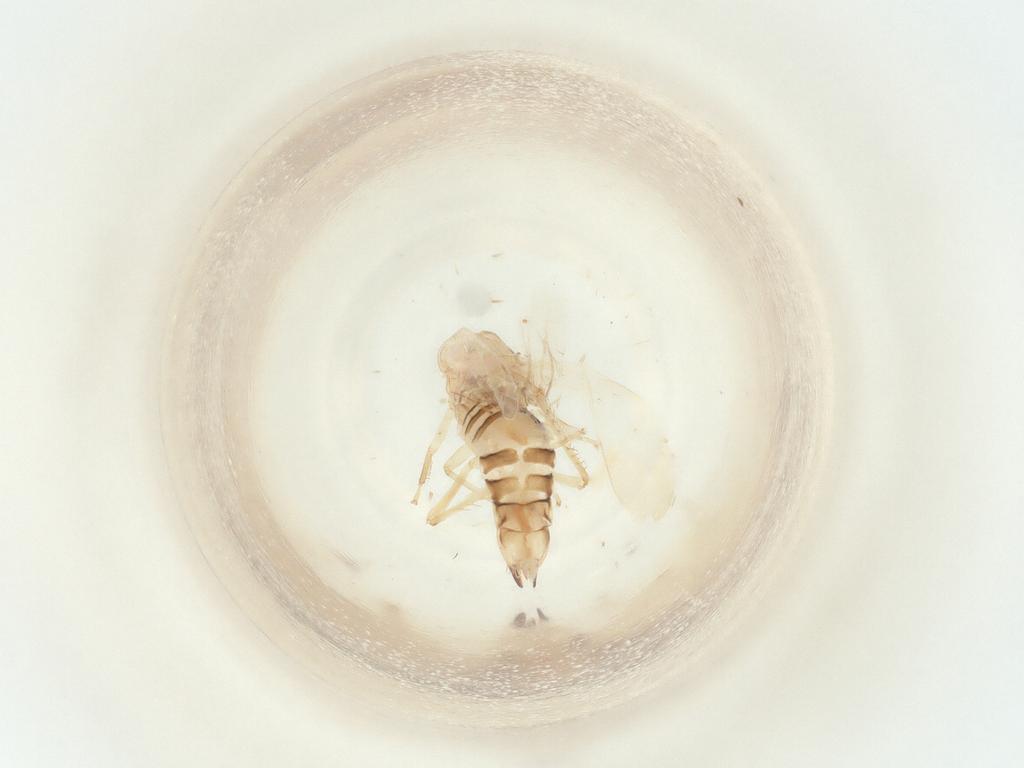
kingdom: Animalia
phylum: Arthropoda
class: Insecta
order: Hemiptera
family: Cicadellidae
